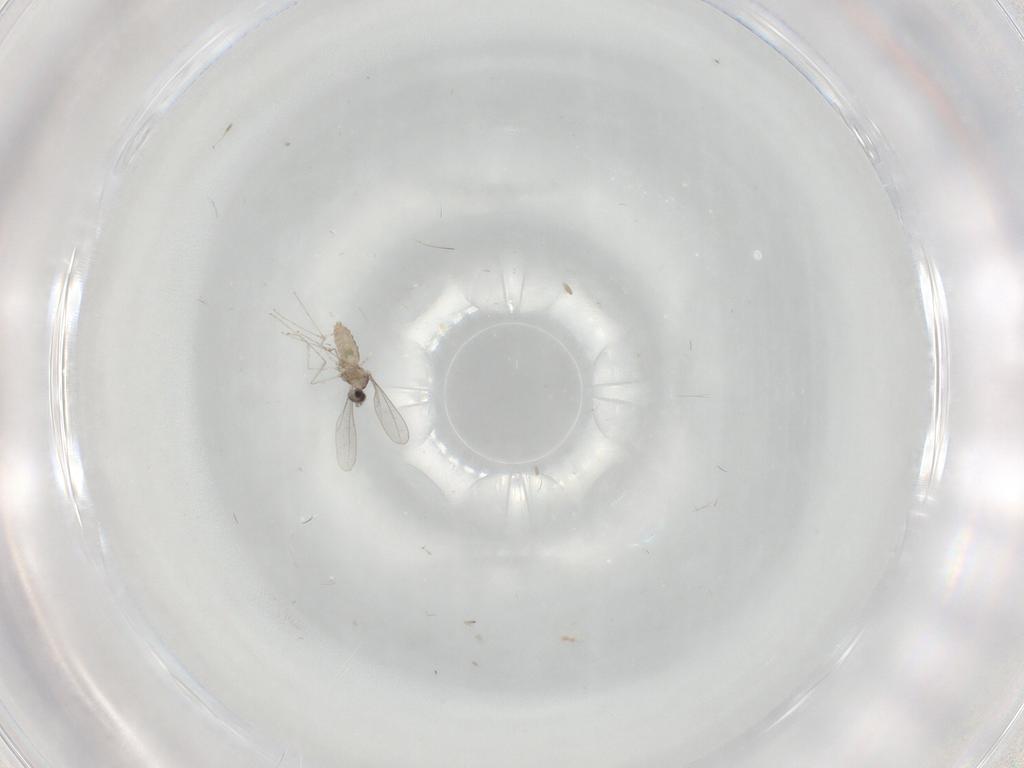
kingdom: Animalia
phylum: Arthropoda
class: Insecta
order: Diptera
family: Cecidomyiidae
